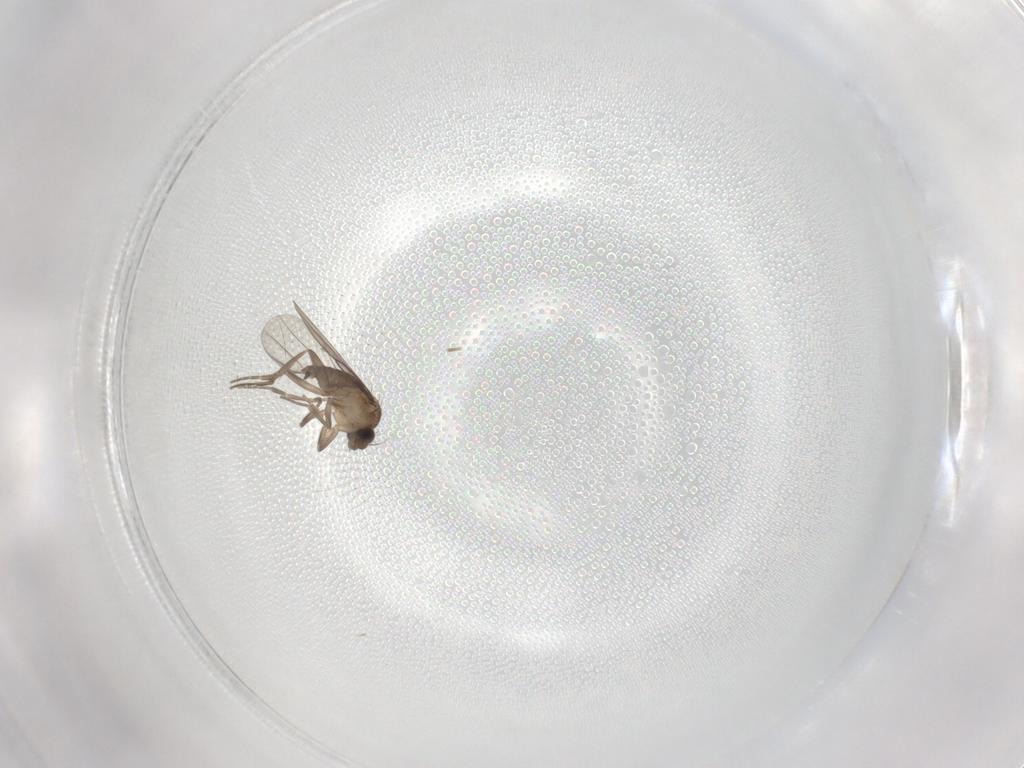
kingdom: Animalia
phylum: Arthropoda
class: Insecta
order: Diptera
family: Phoridae
